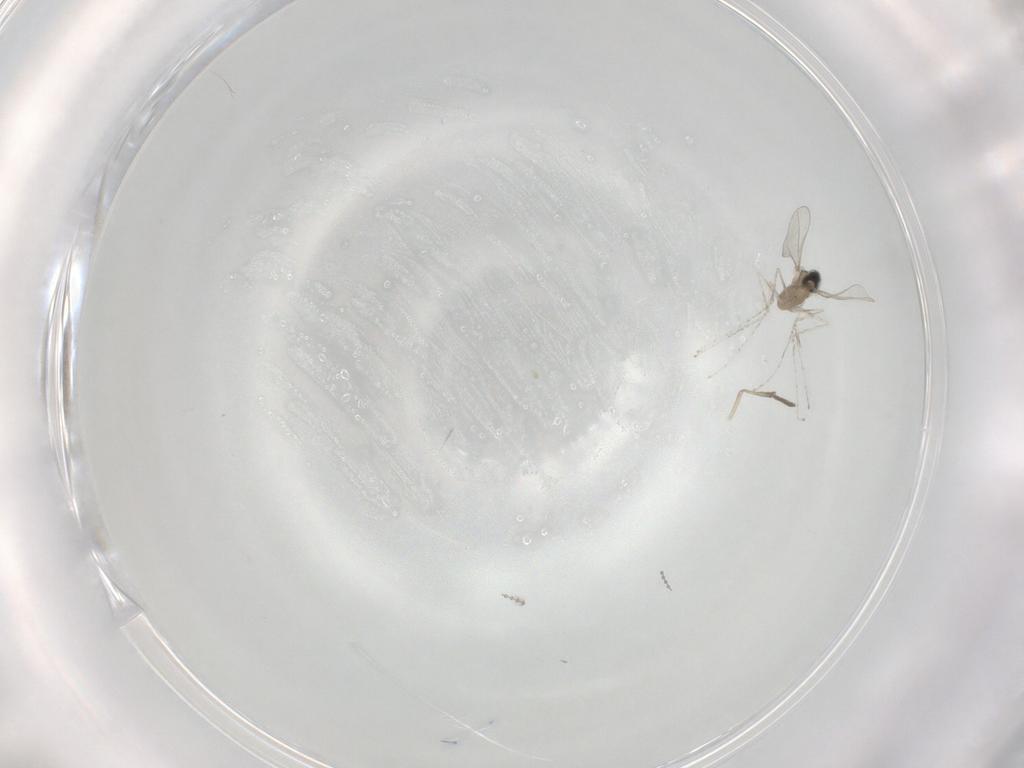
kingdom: Animalia
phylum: Arthropoda
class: Insecta
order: Diptera
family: Cecidomyiidae
